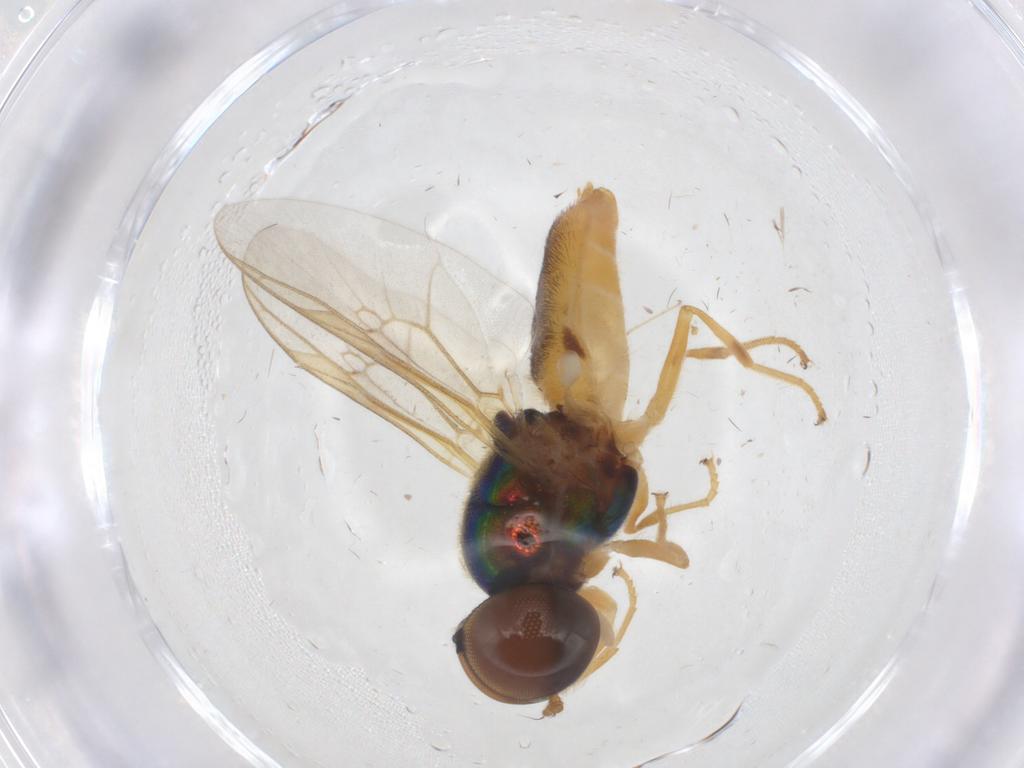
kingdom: Animalia
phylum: Arthropoda
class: Insecta
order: Diptera
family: Stratiomyidae
